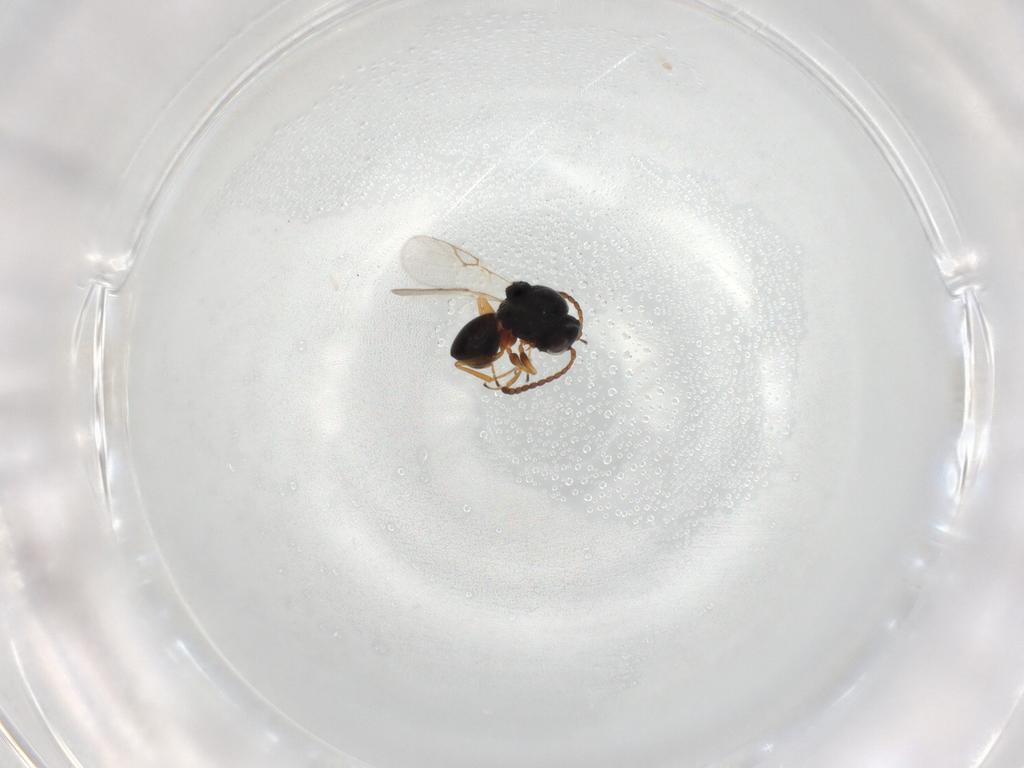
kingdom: Animalia
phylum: Arthropoda
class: Insecta
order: Hymenoptera
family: Figitidae
